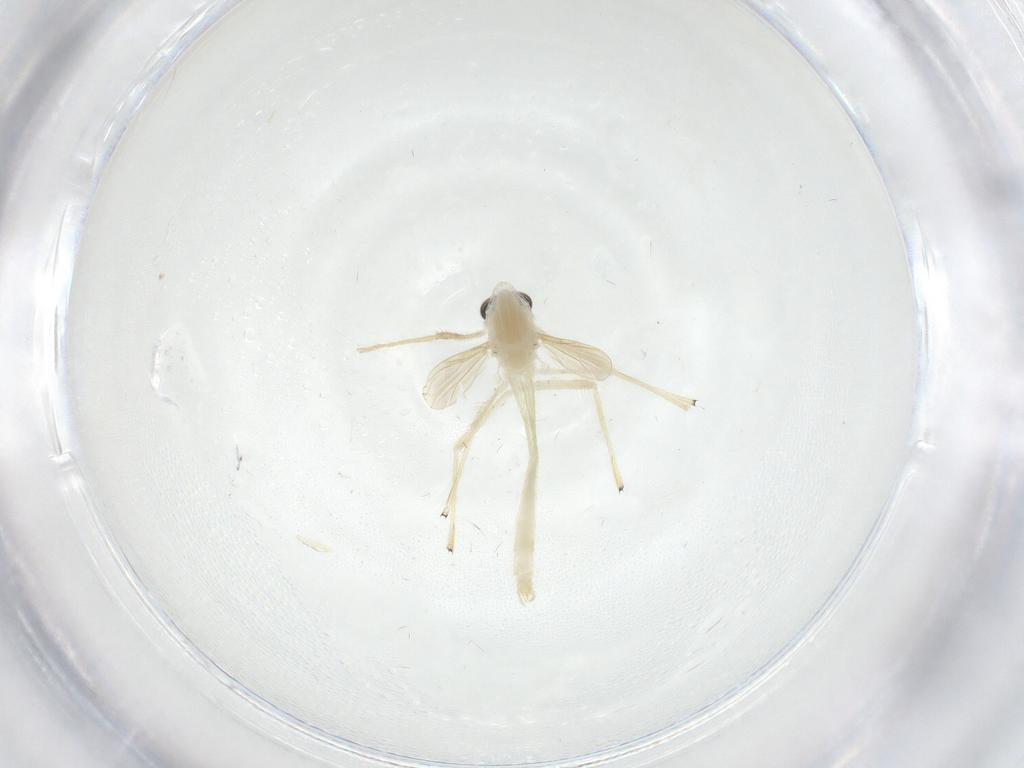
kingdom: Animalia
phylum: Arthropoda
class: Insecta
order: Diptera
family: Chironomidae
